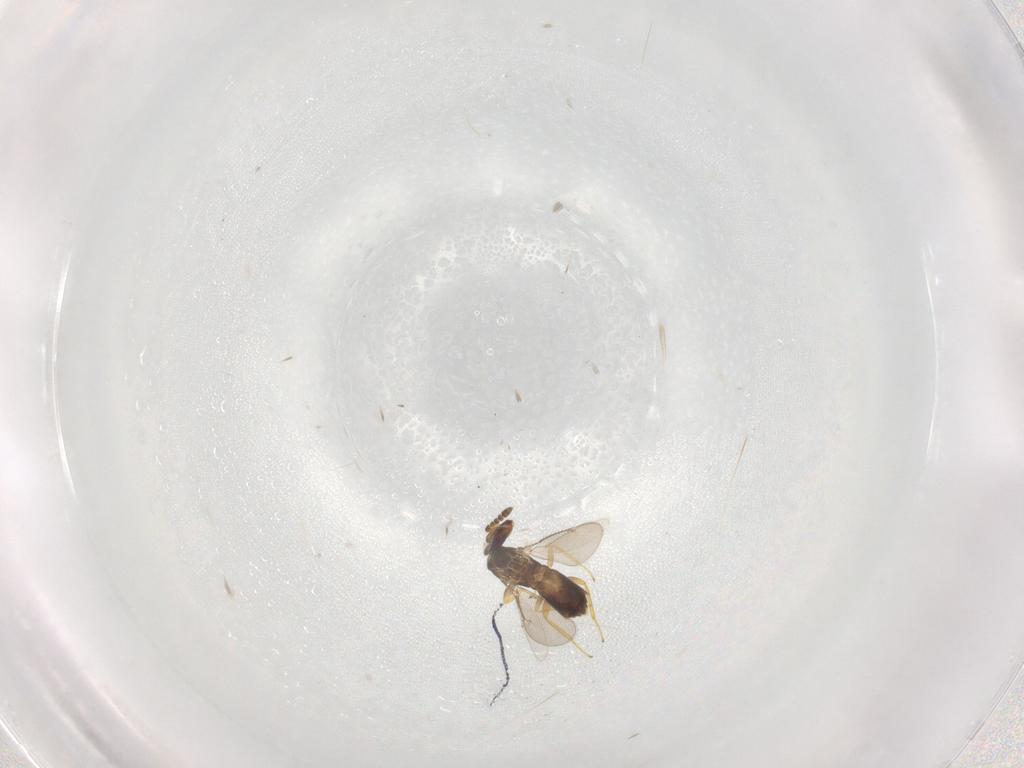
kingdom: Animalia
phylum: Arthropoda
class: Insecta
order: Hymenoptera
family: Eulophidae
